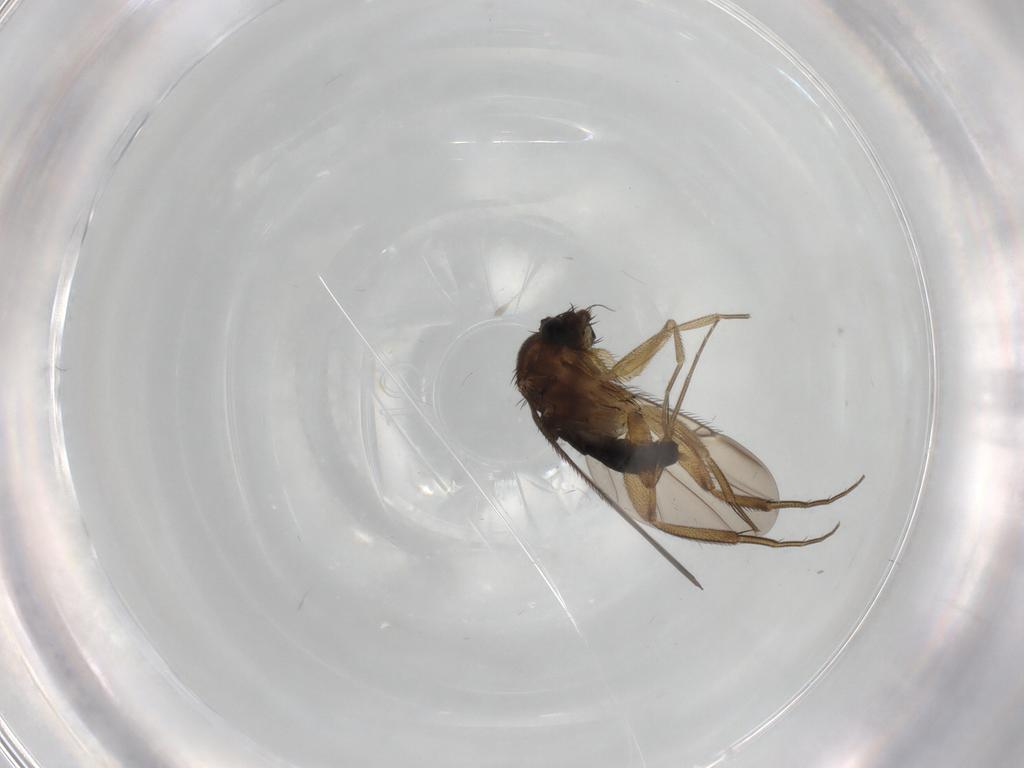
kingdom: Animalia
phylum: Arthropoda
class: Insecta
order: Diptera
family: Phoridae
